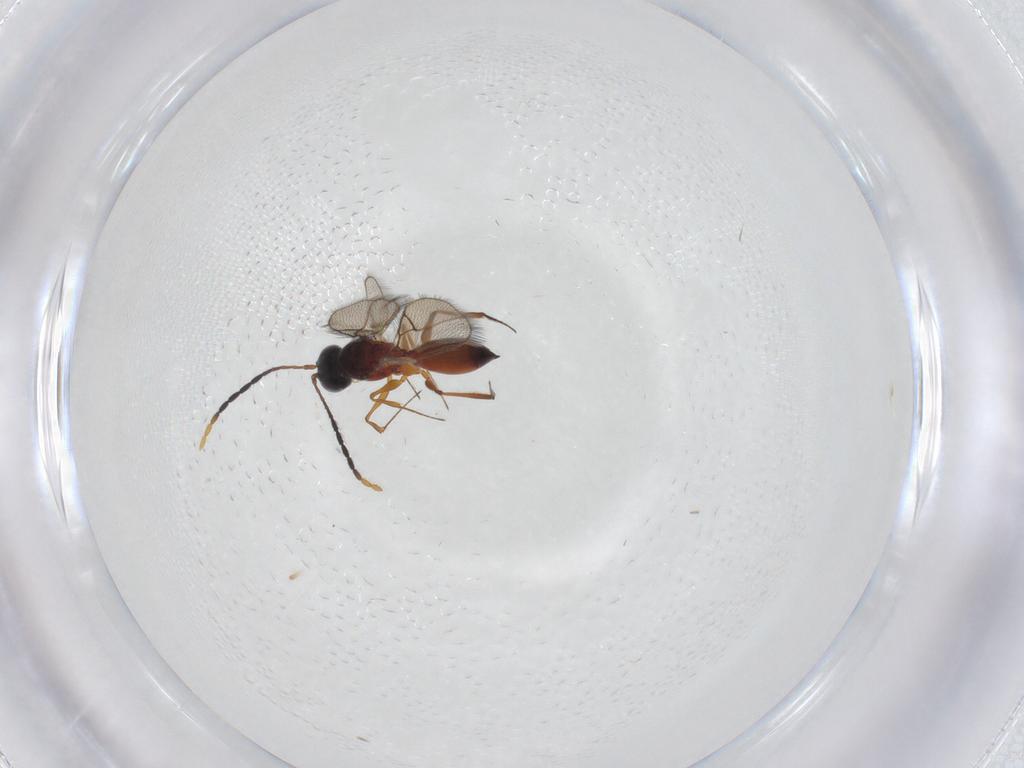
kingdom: Animalia
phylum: Arthropoda
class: Insecta
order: Hymenoptera
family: Figitidae
